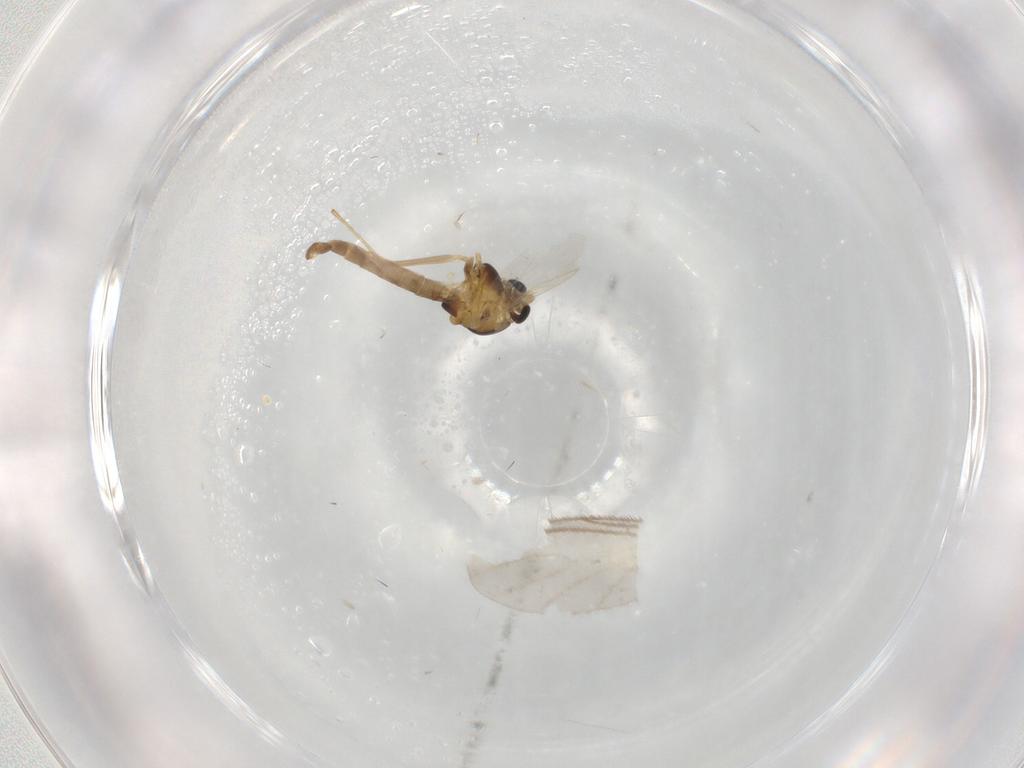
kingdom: Animalia
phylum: Arthropoda
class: Insecta
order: Diptera
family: Chironomidae
